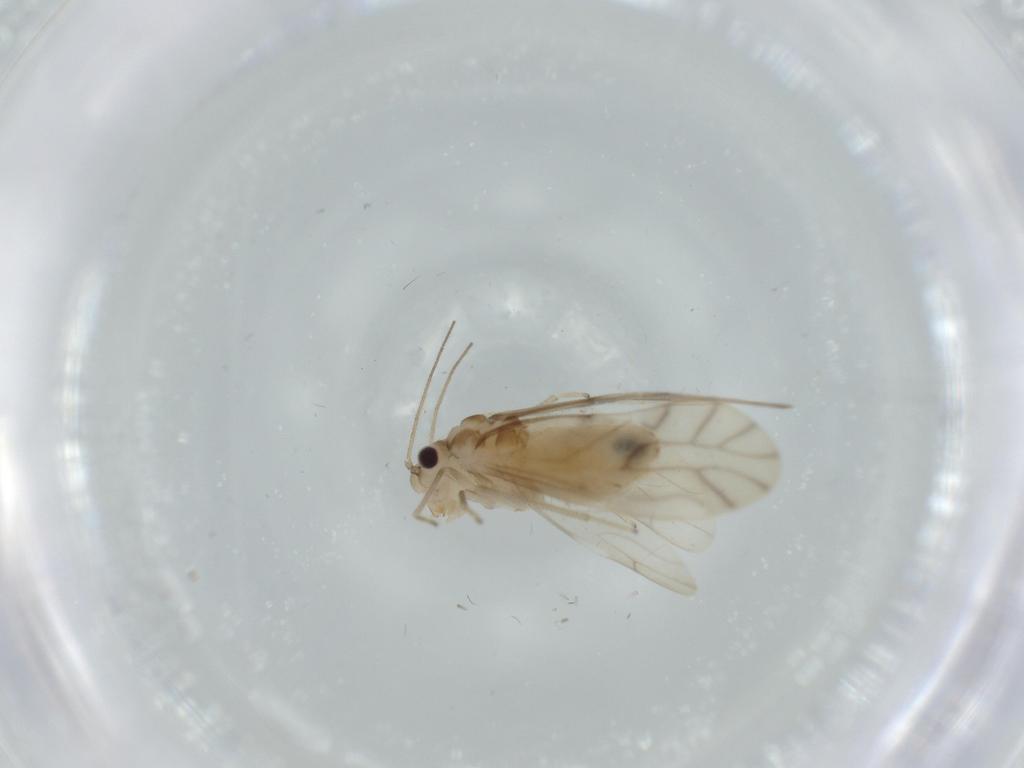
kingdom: Animalia
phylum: Arthropoda
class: Insecta
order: Psocodea
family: Caeciliusidae
